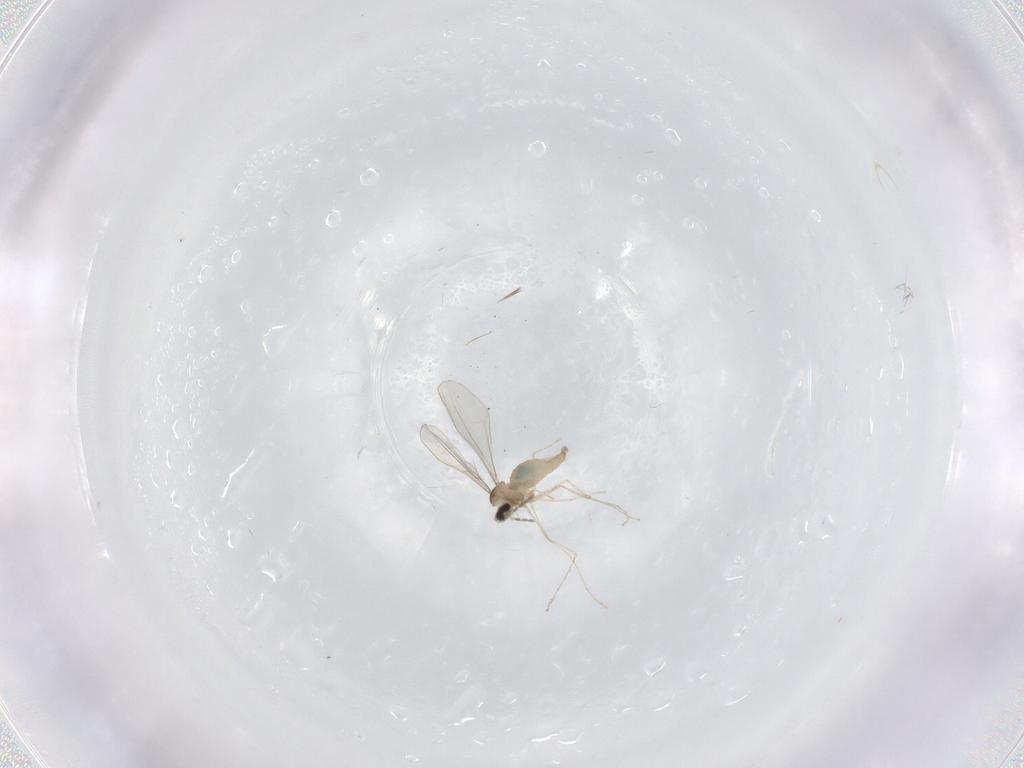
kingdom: Animalia
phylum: Arthropoda
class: Insecta
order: Diptera
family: Cecidomyiidae
